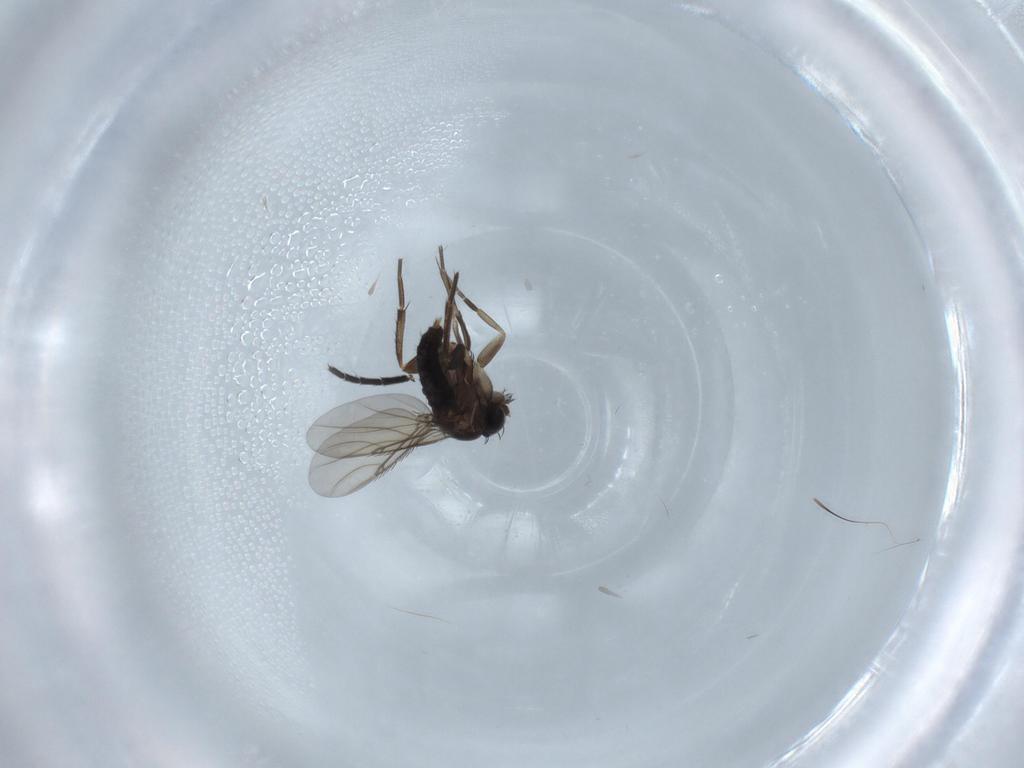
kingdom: Animalia
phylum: Arthropoda
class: Insecta
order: Diptera
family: Phoridae
